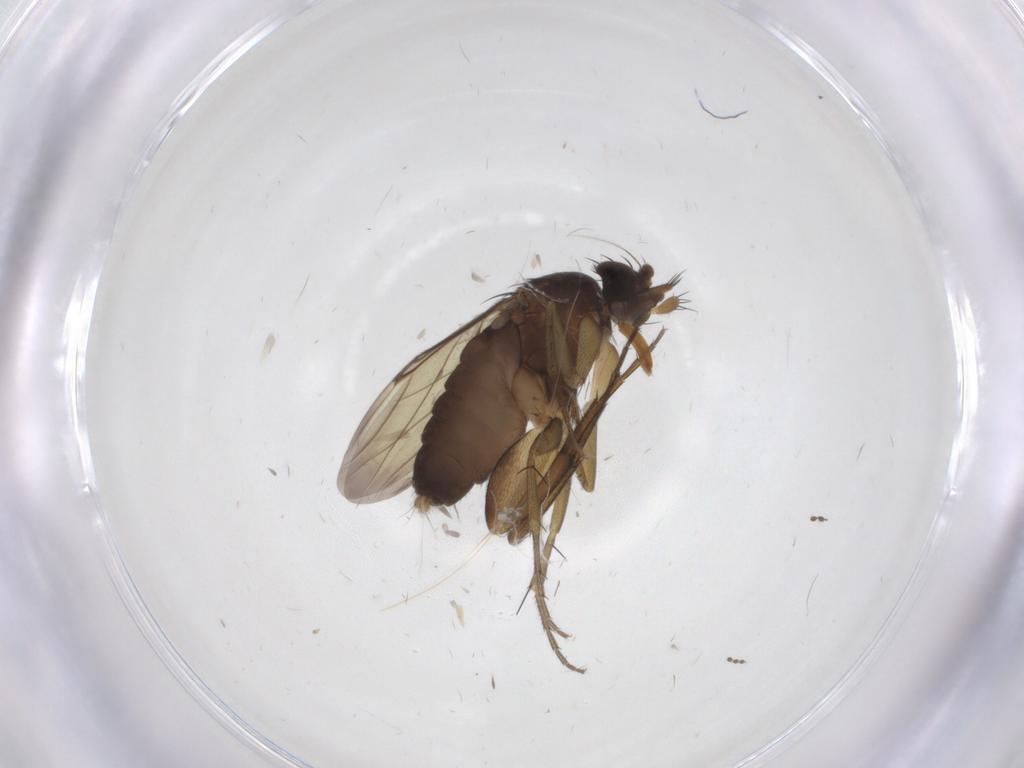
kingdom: Animalia
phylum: Arthropoda
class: Insecta
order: Diptera
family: Phoridae
